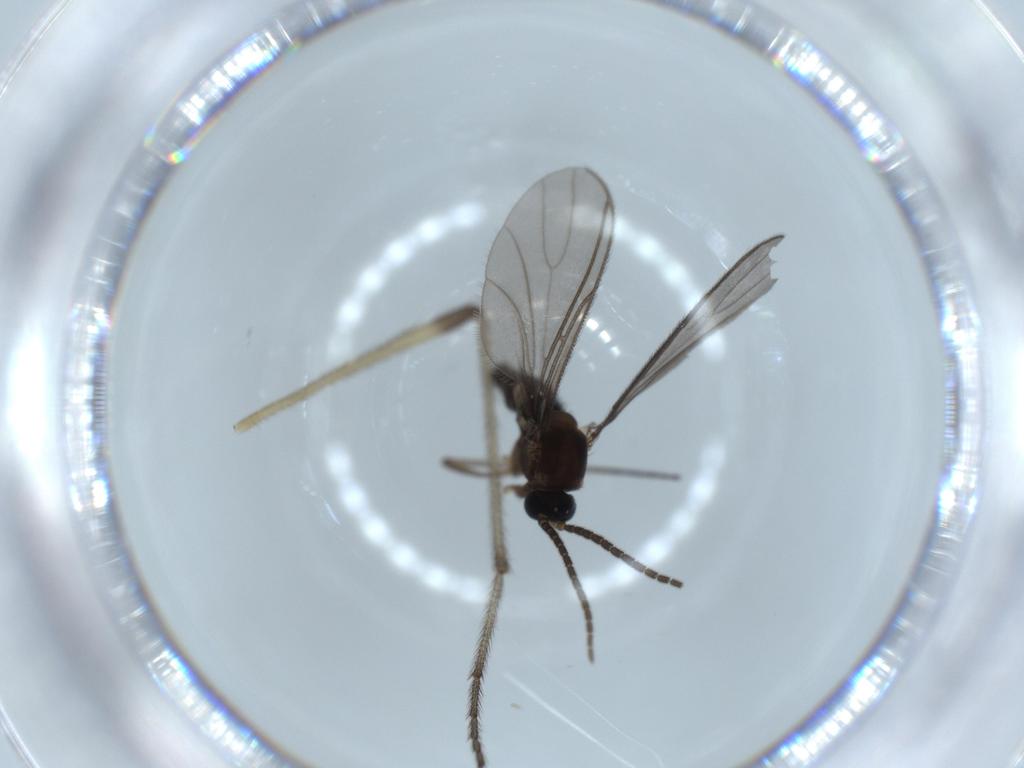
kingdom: Animalia
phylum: Arthropoda
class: Insecta
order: Diptera
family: Sciaridae
